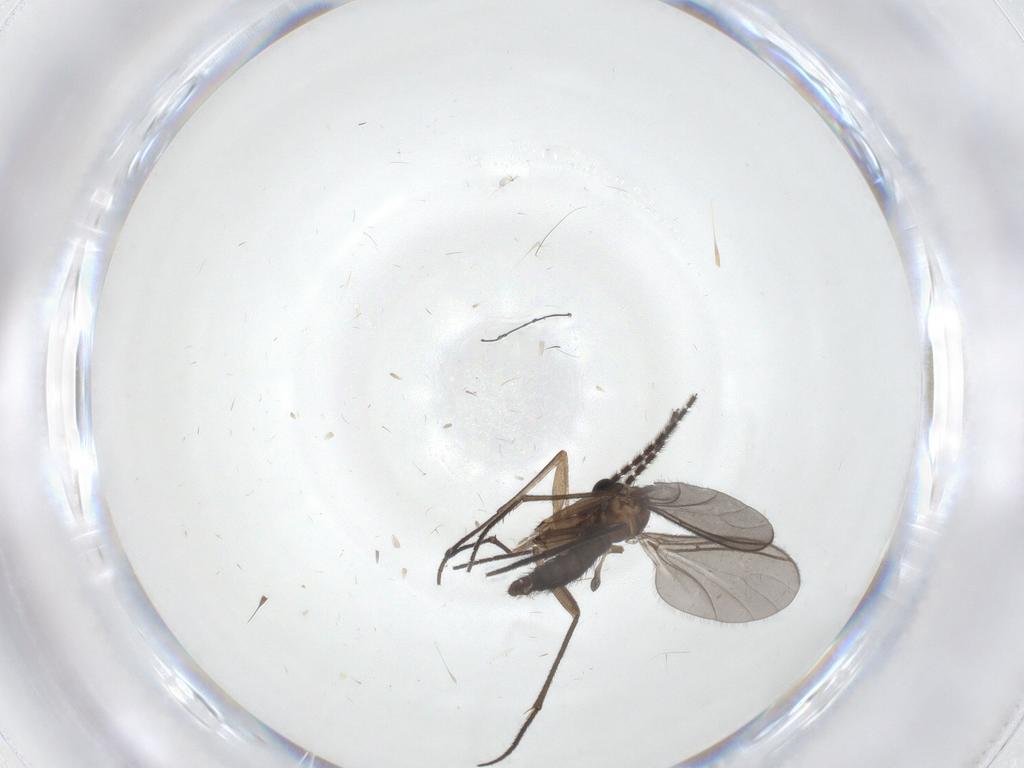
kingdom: Animalia
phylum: Arthropoda
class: Insecta
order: Diptera
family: Sciaridae
